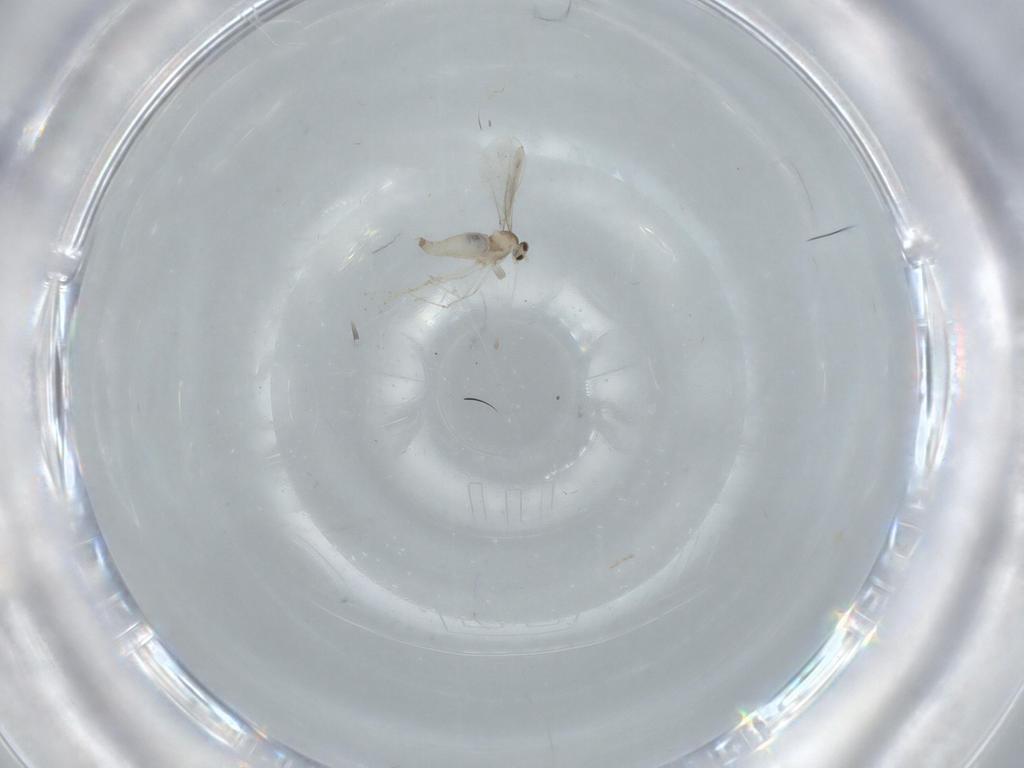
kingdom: Animalia
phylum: Arthropoda
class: Insecta
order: Diptera
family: Cecidomyiidae
